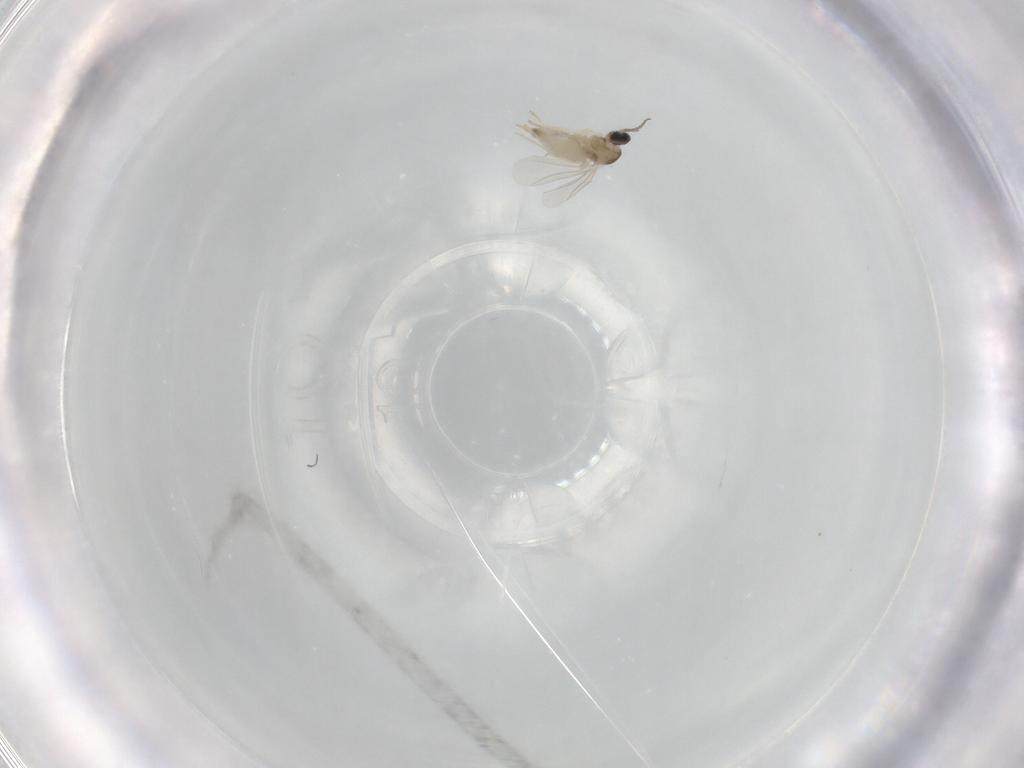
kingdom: Animalia
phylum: Arthropoda
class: Insecta
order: Diptera
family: Cecidomyiidae
